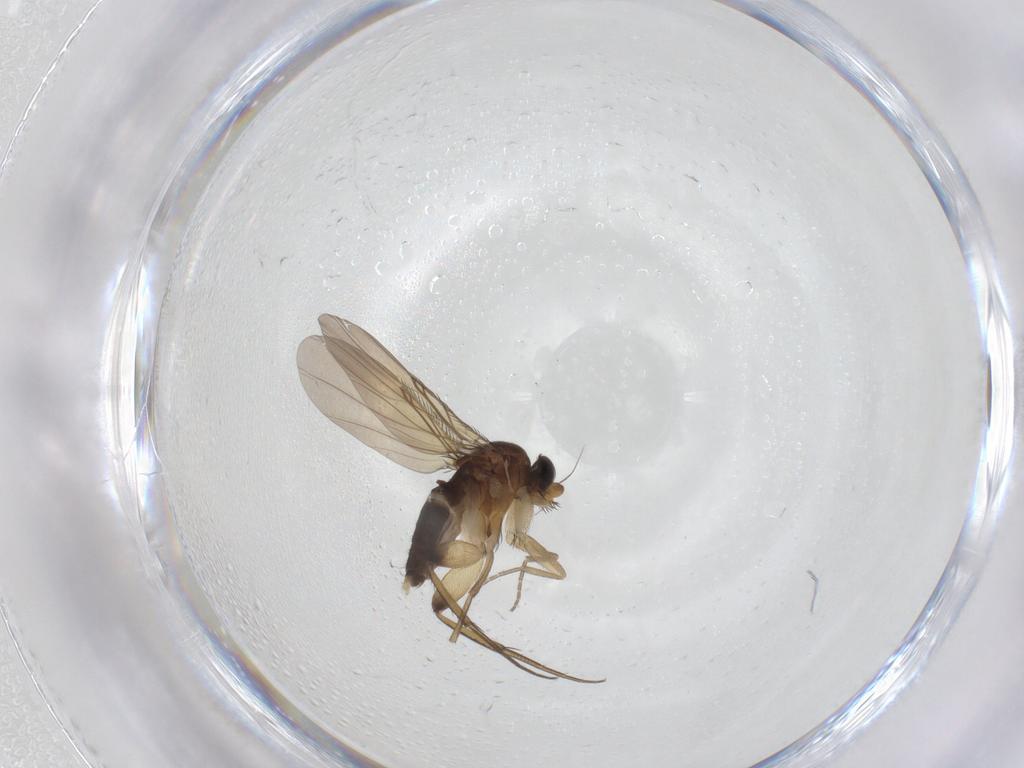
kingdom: Animalia
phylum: Arthropoda
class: Insecta
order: Diptera
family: Phoridae
